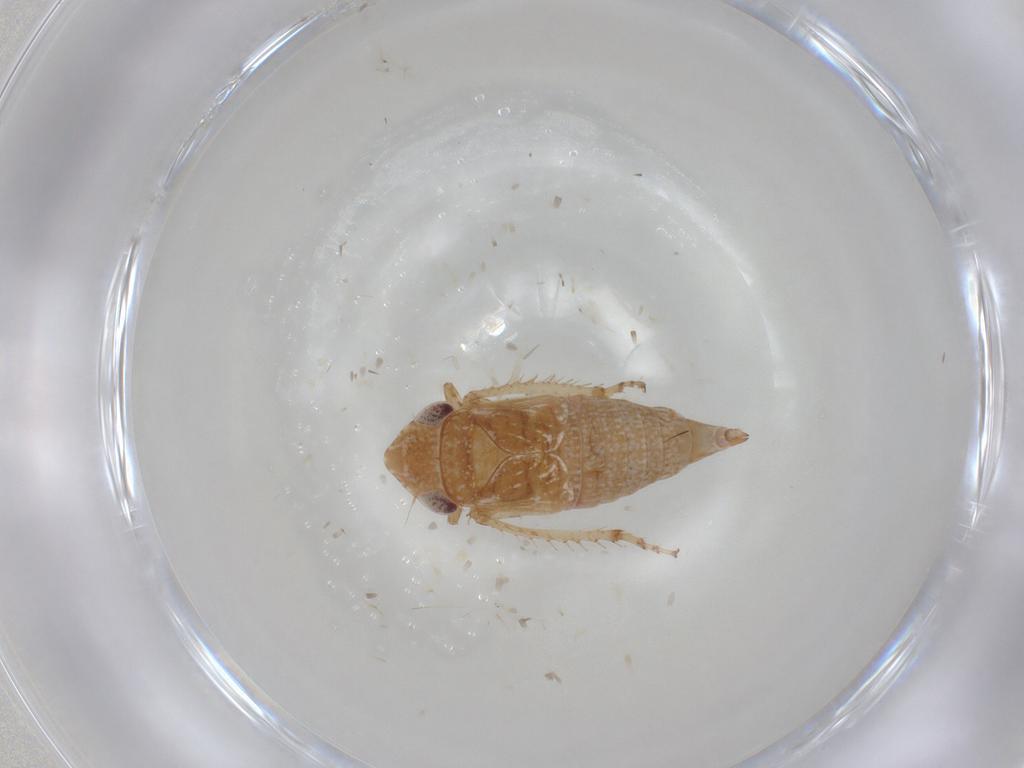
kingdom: Animalia
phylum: Arthropoda
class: Insecta
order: Hemiptera
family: Cicadellidae
